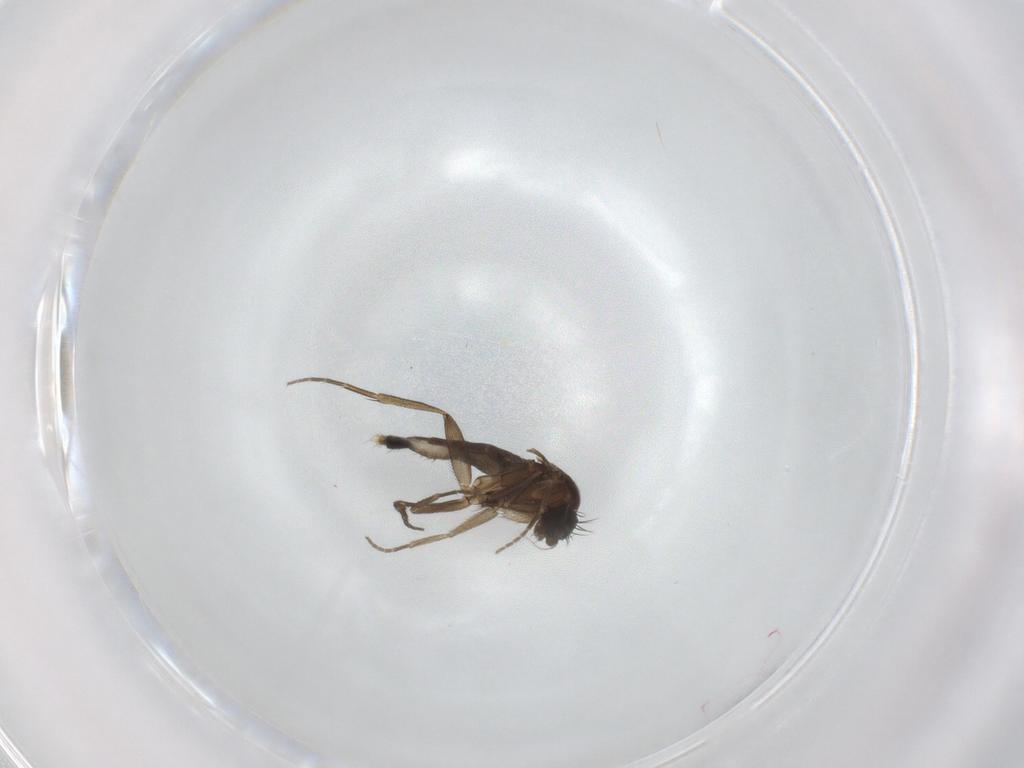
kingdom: Animalia
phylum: Arthropoda
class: Insecta
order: Diptera
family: Phoridae
